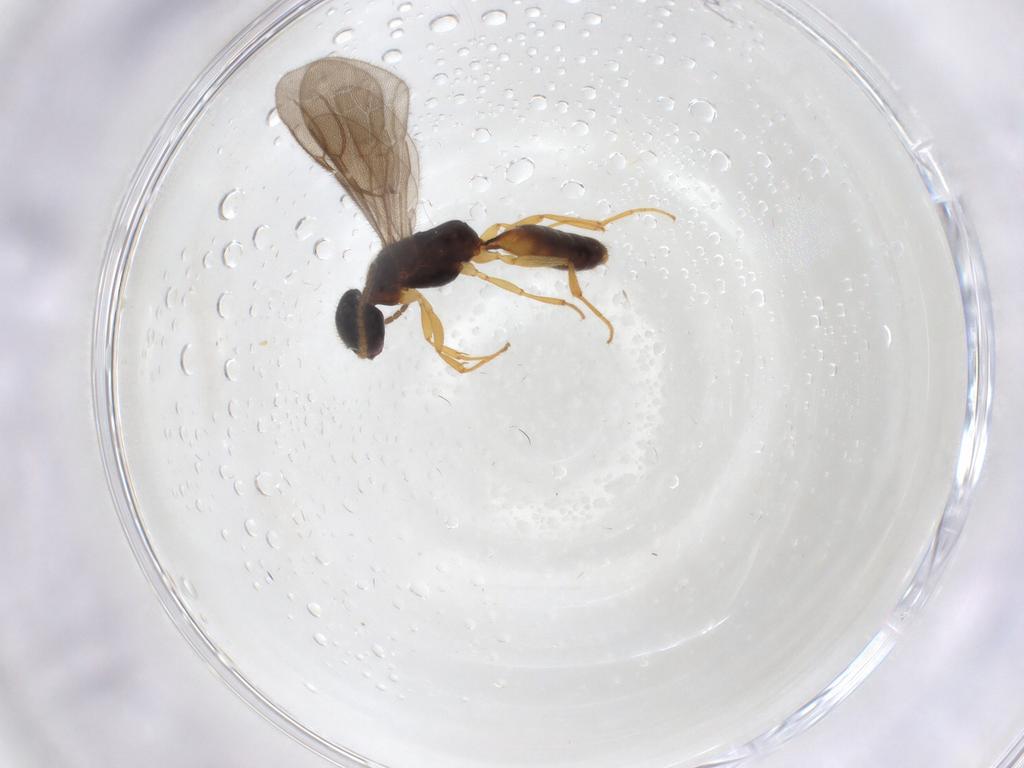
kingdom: Animalia
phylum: Arthropoda
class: Insecta
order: Hymenoptera
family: Bethylidae
